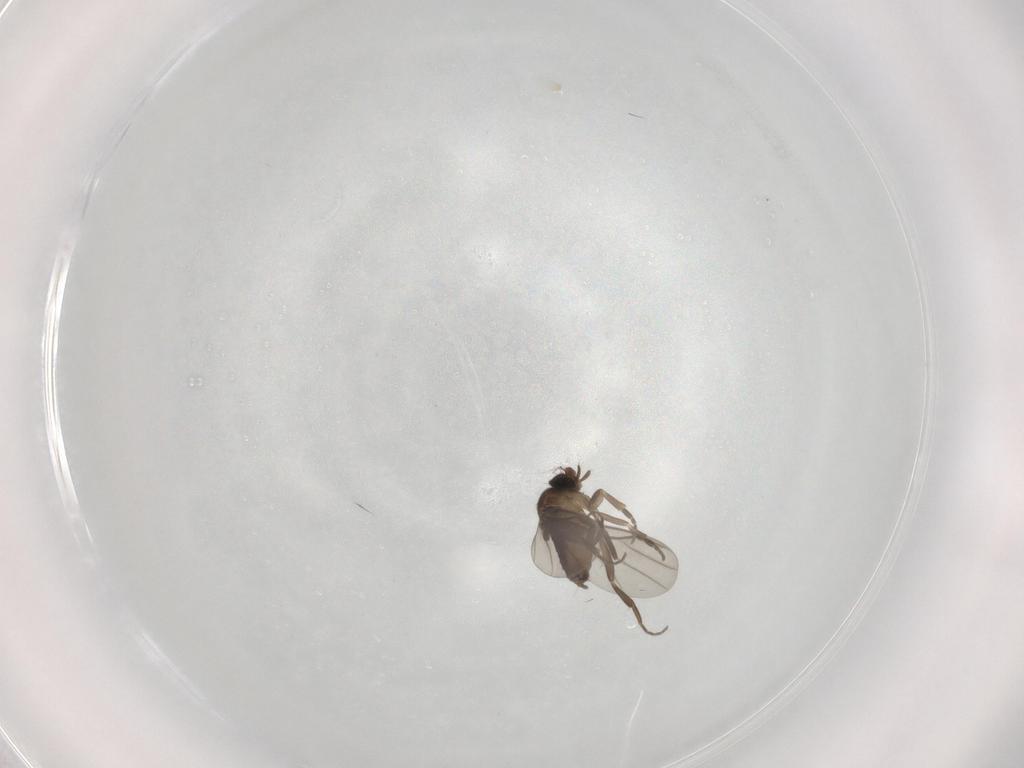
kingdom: Animalia
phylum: Arthropoda
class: Insecta
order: Diptera
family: Phoridae
